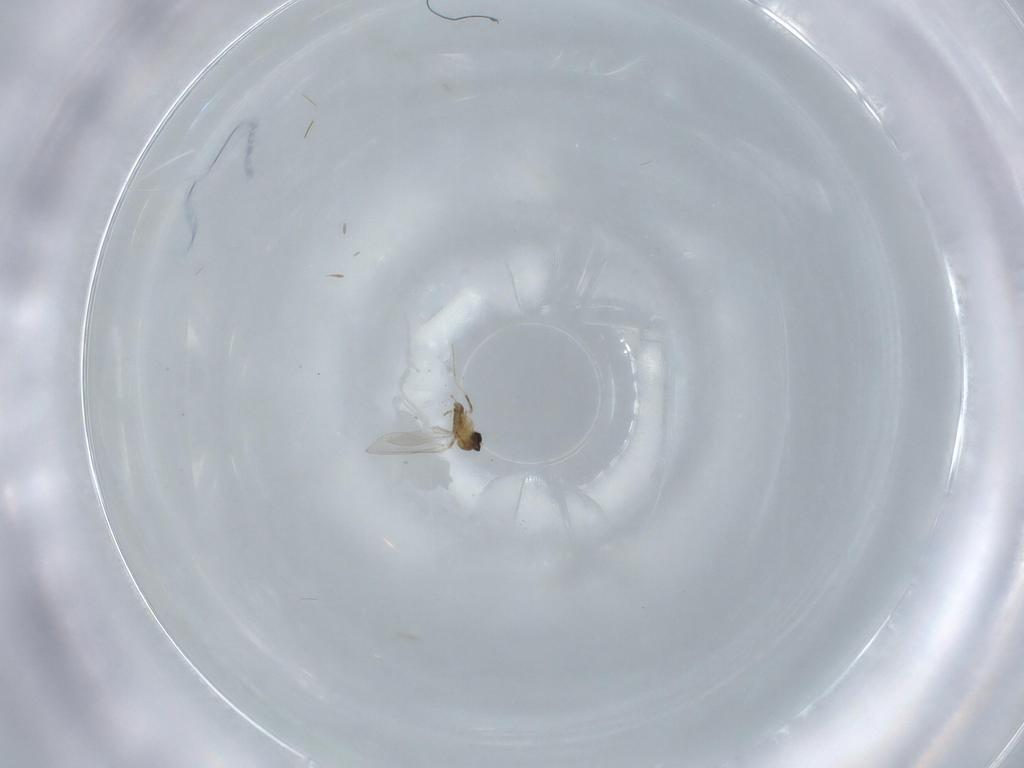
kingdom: Animalia
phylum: Arthropoda
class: Insecta
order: Diptera
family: Cecidomyiidae
